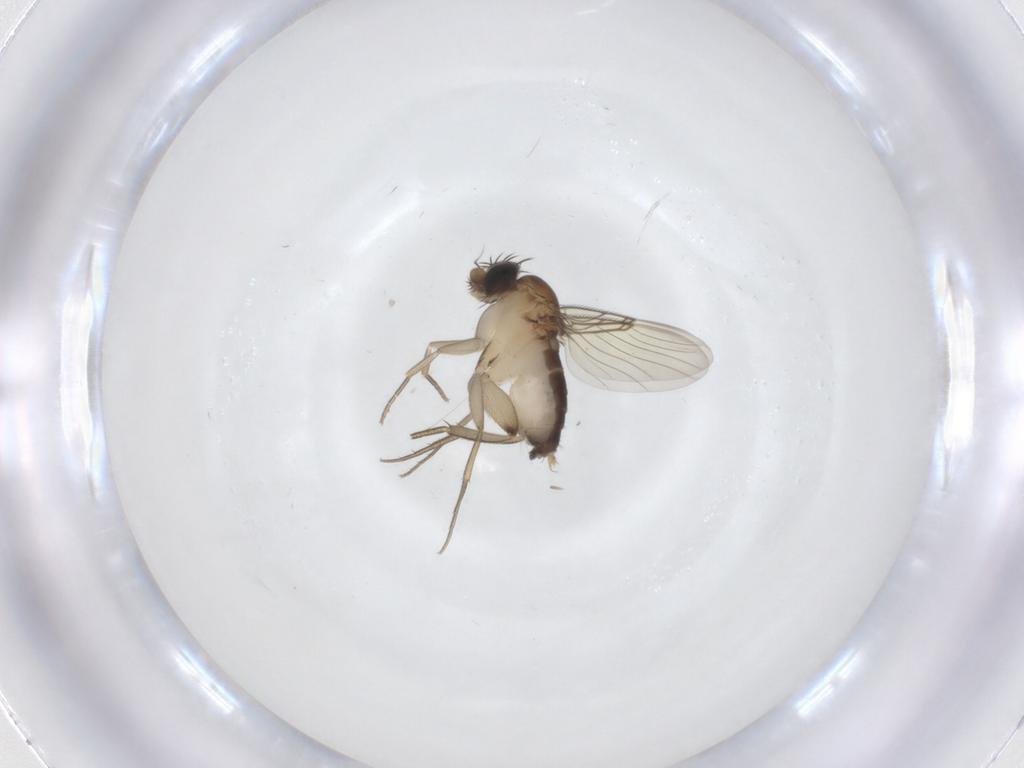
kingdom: Animalia
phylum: Arthropoda
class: Insecta
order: Diptera
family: Phoridae
